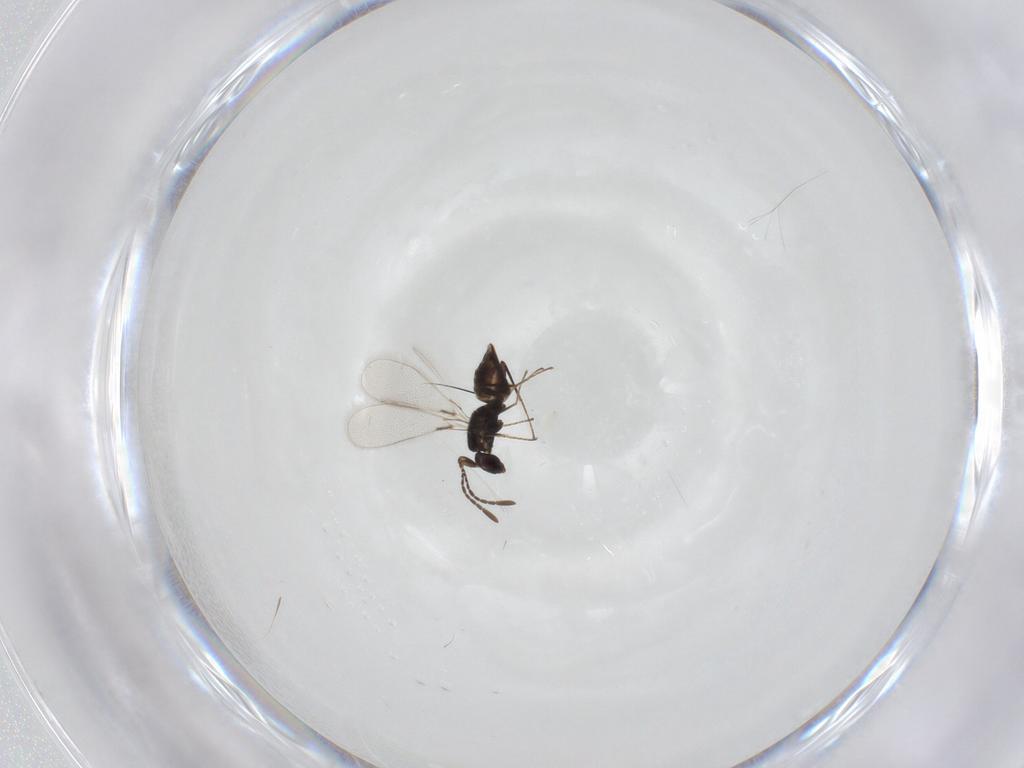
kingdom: Animalia
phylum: Arthropoda
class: Insecta
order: Hymenoptera
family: Mymaridae
